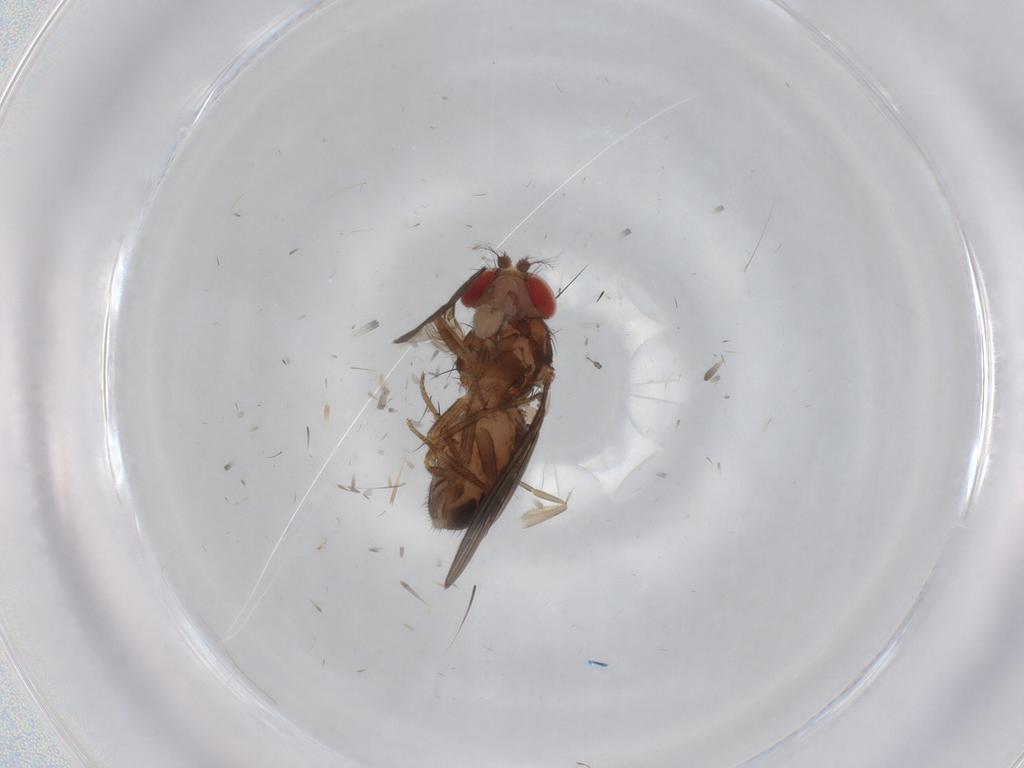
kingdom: Animalia
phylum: Arthropoda
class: Insecta
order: Diptera
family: Drosophilidae
